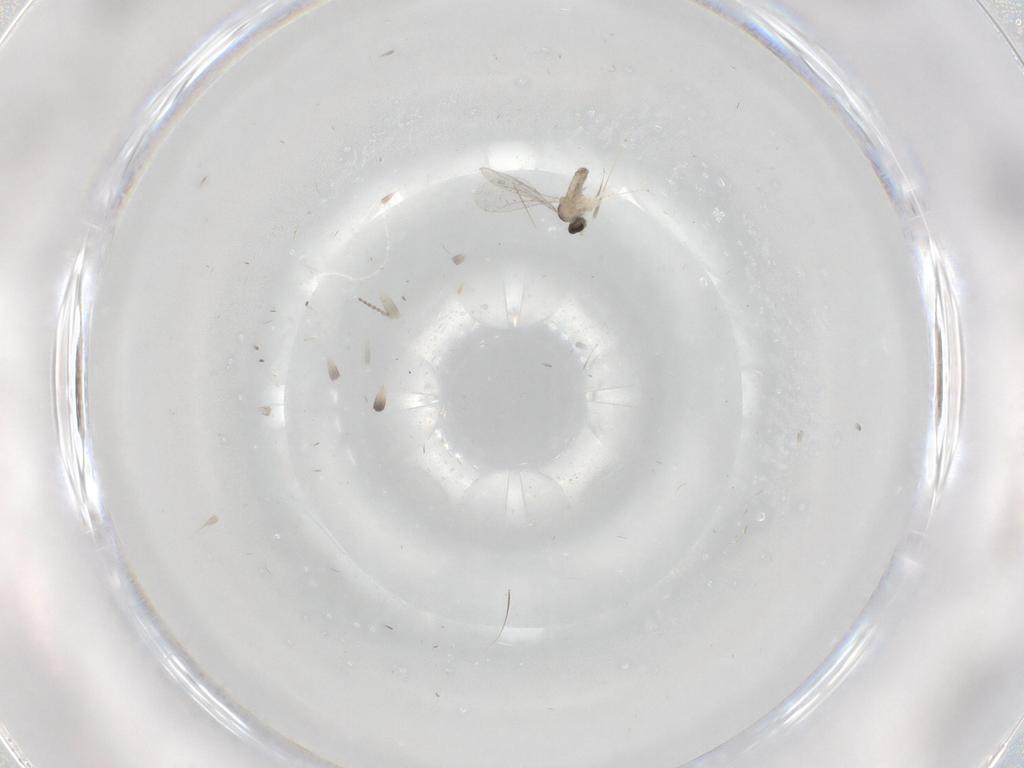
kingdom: Animalia
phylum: Arthropoda
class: Insecta
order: Diptera
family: Cecidomyiidae
